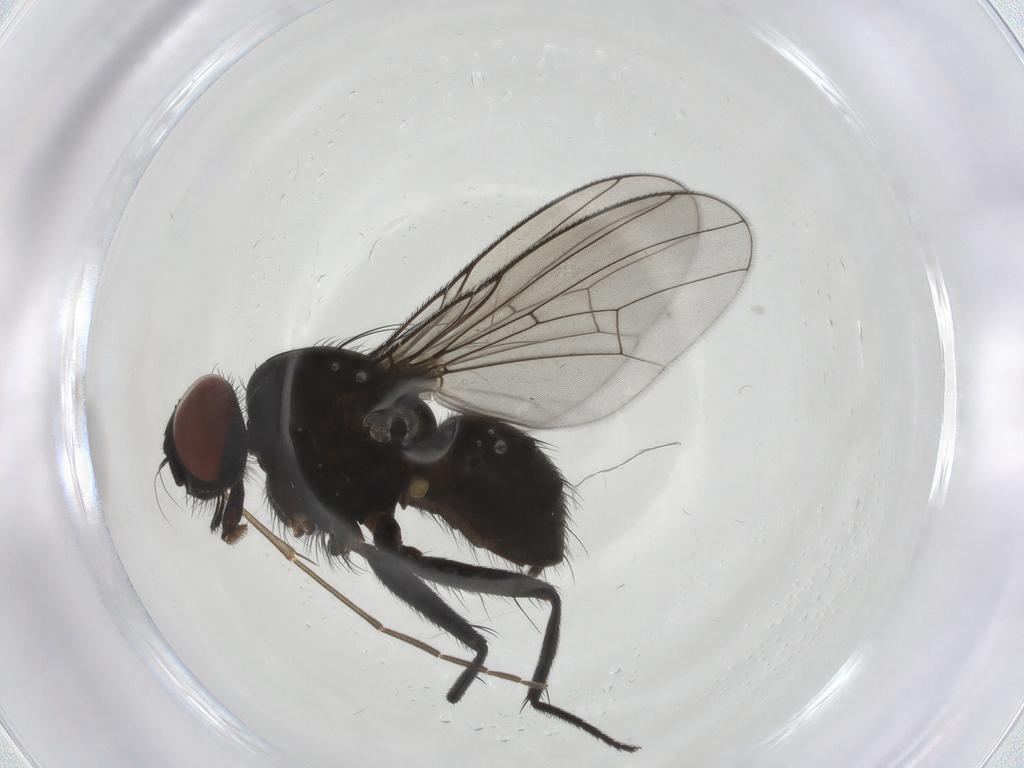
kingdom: Animalia
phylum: Arthropoda
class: Insecta
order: Diptera
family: Muscidae
